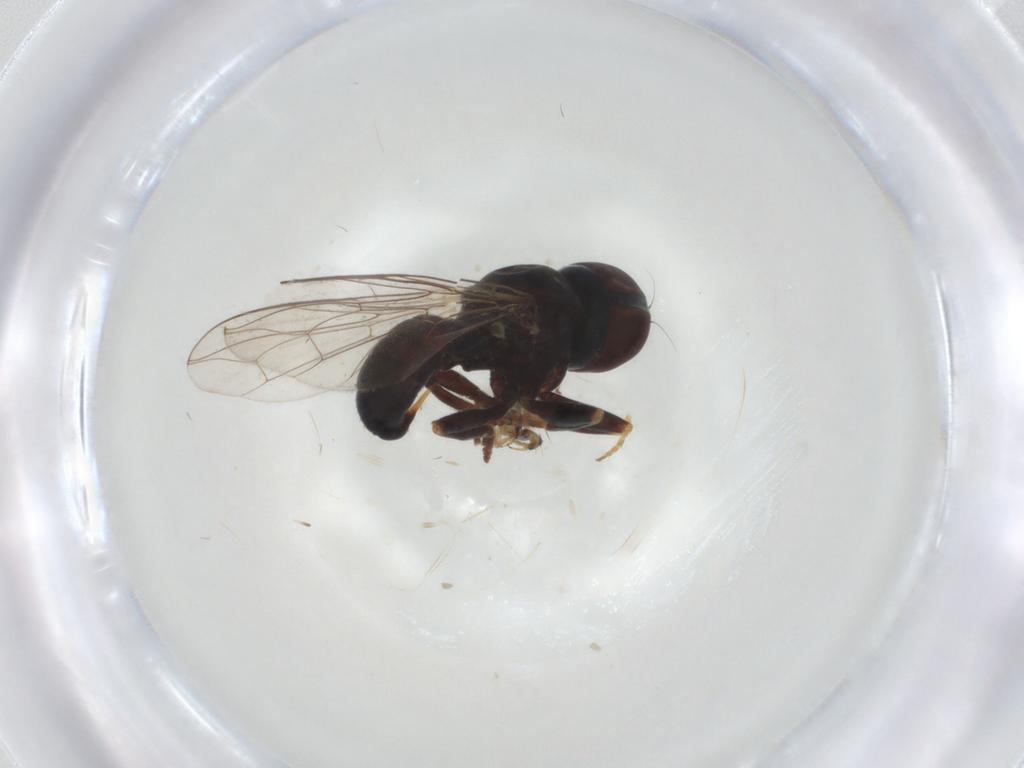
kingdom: Animalia
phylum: Arthropoda
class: Insecta
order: Diptera
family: Pipunculidae
